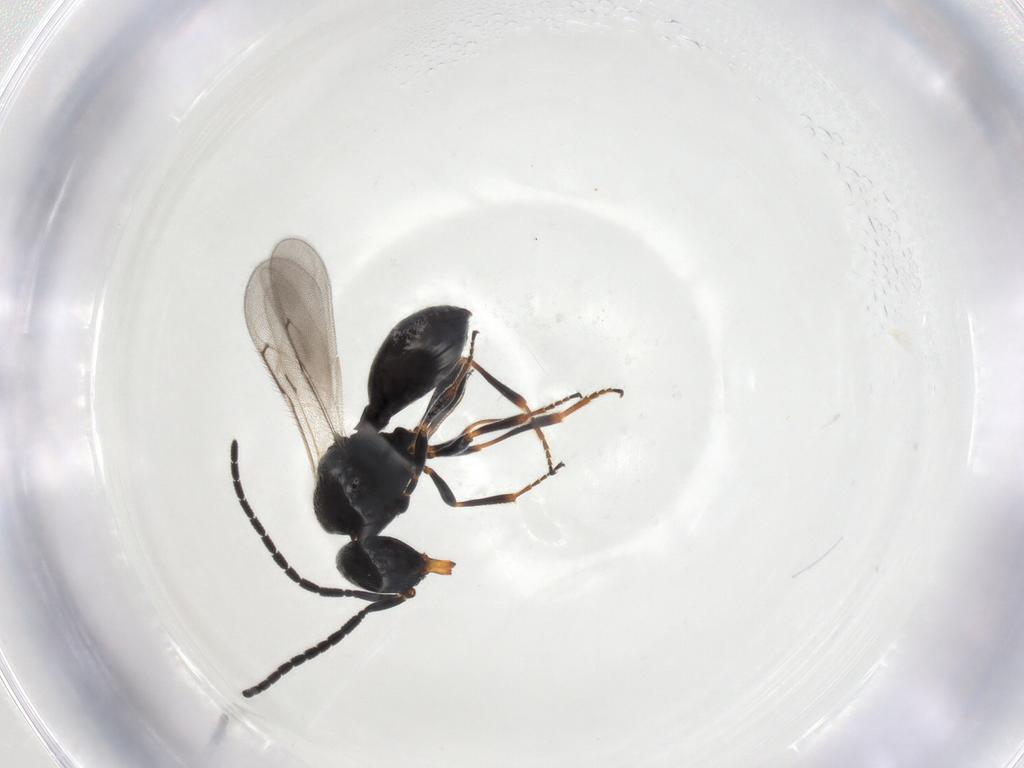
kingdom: Animalia
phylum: Arthropoda
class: Insecta
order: Hymenoptera
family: Scelionidae
